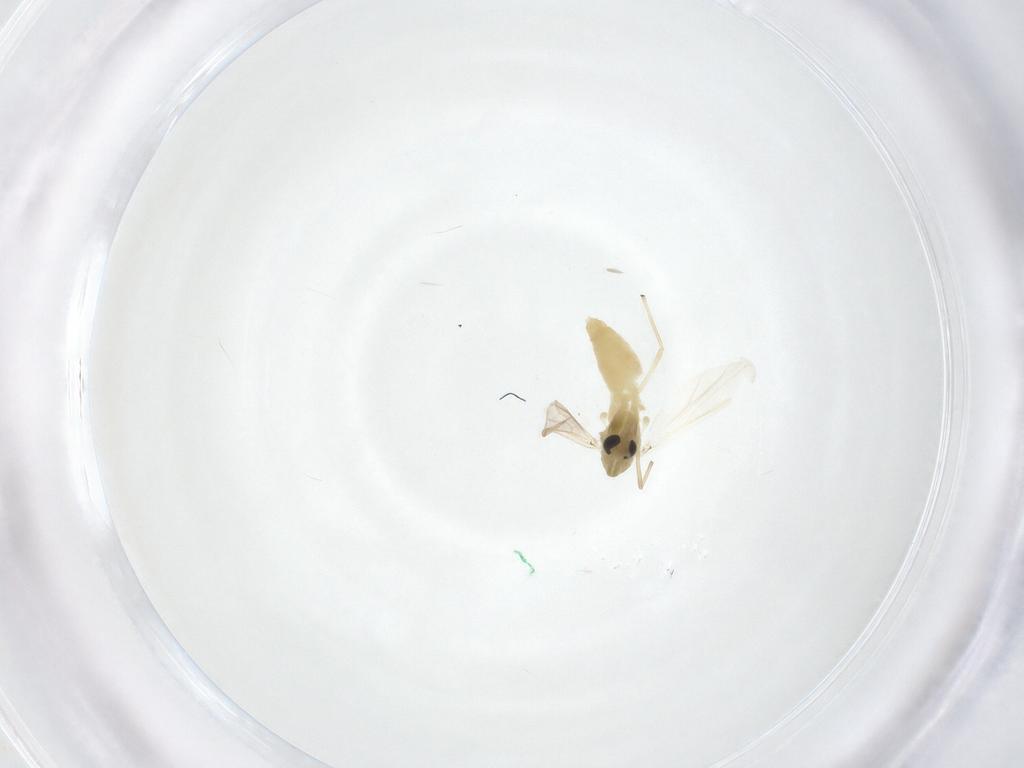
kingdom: Animalia
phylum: Arthropoda
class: Insecta
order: Diptera
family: Chironomidae
